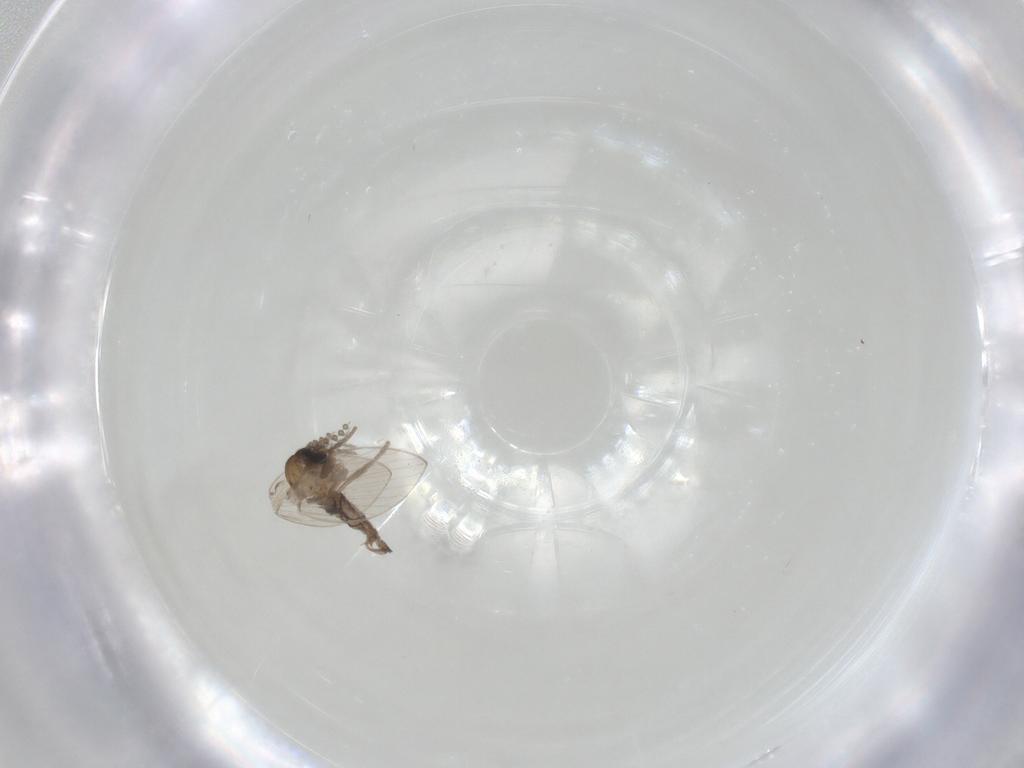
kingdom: Animalia
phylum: Arthropoda
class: Insecta
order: Diptera
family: Psychodidae
